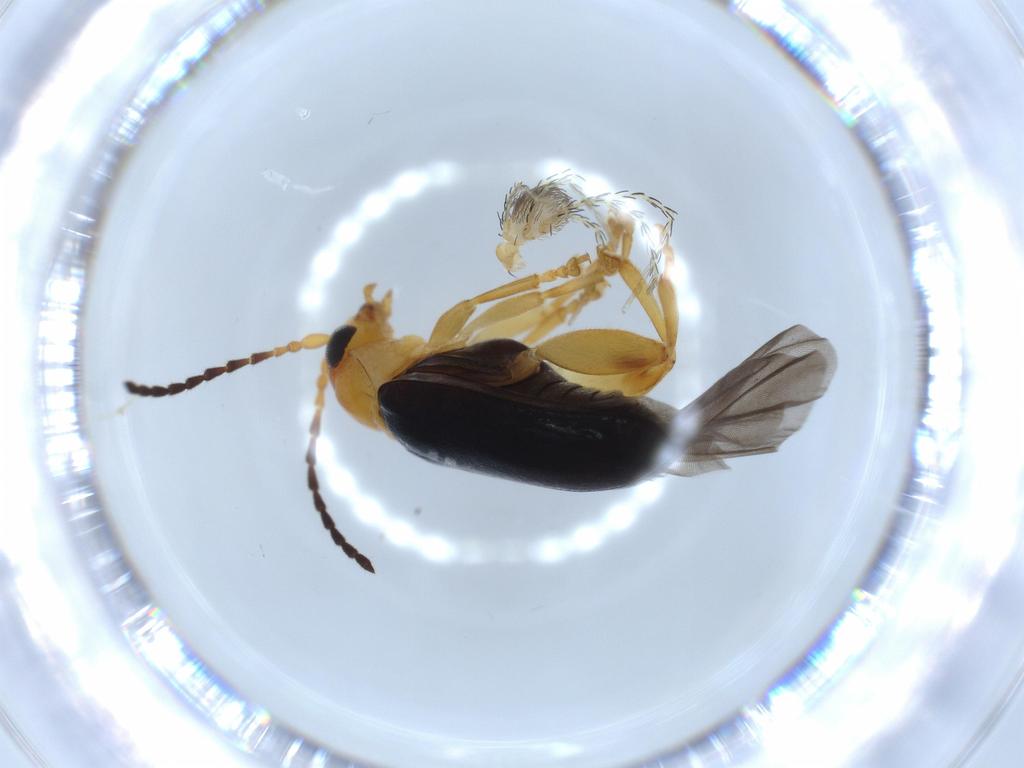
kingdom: Animalia
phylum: Arthropoda
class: Insecta
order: Coleoptera
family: Chrysomelidae
